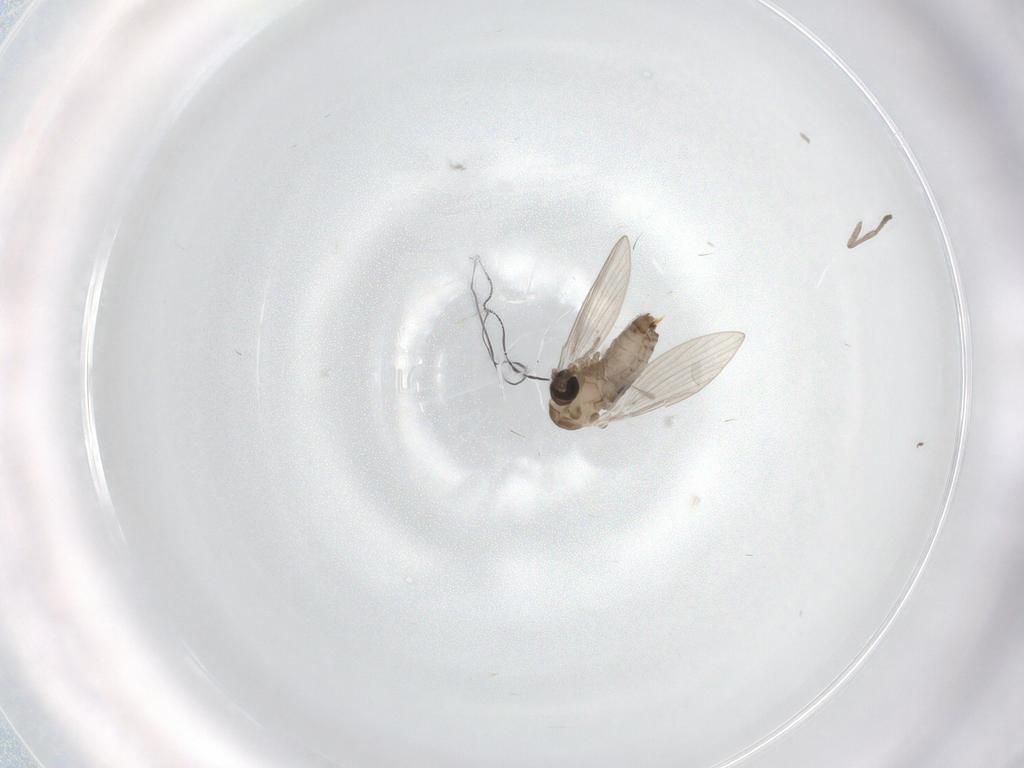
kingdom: Animalia
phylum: Arthropoda
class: Insecta
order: Diptera
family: Psychodidae
